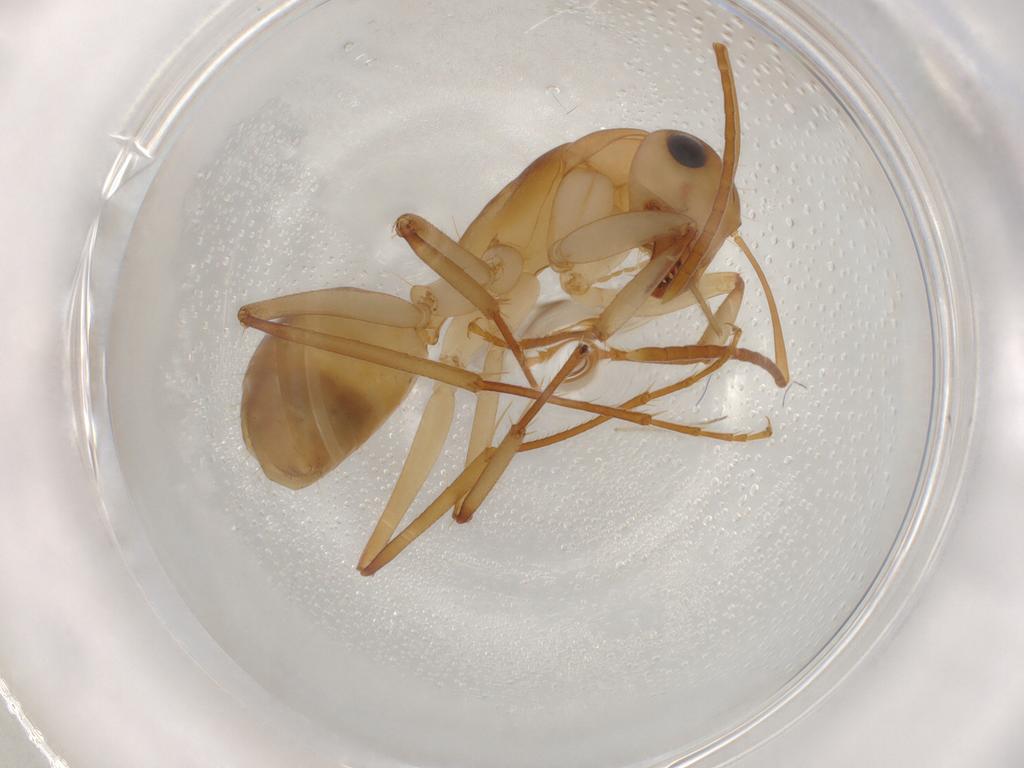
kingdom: Animalia
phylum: Arthropoda
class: Insecta
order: Hymenoptera
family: Formicidae
